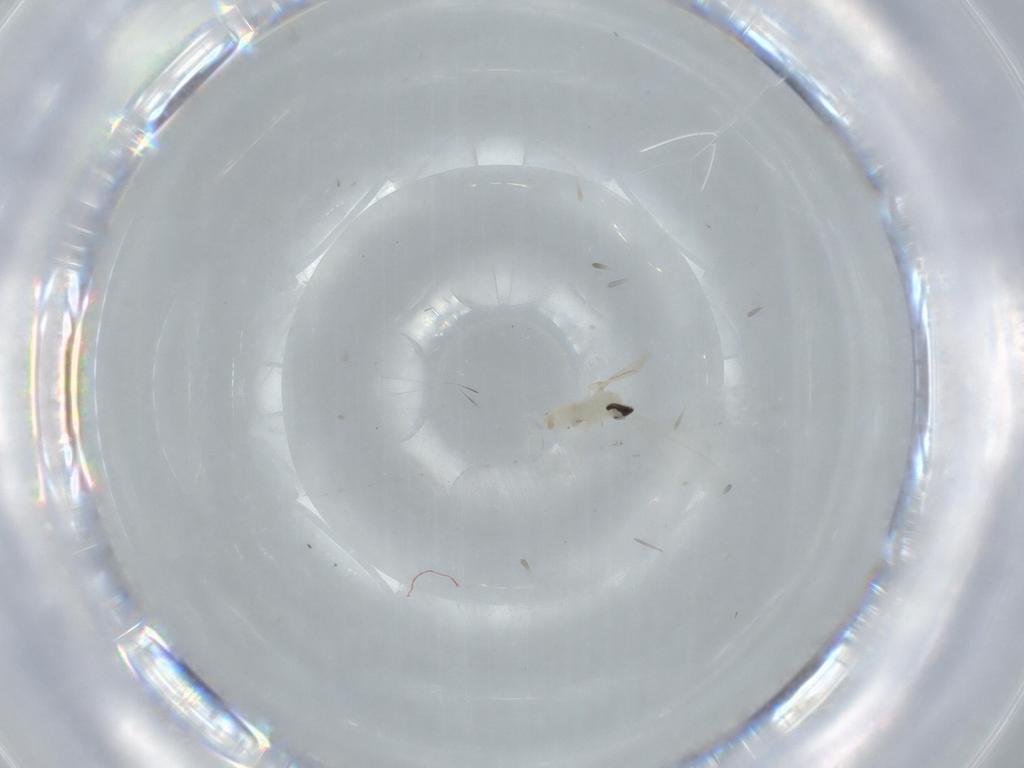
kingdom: Animalia
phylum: Arthropoda
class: Insecta
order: Diptera
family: Cecidomyiidae
